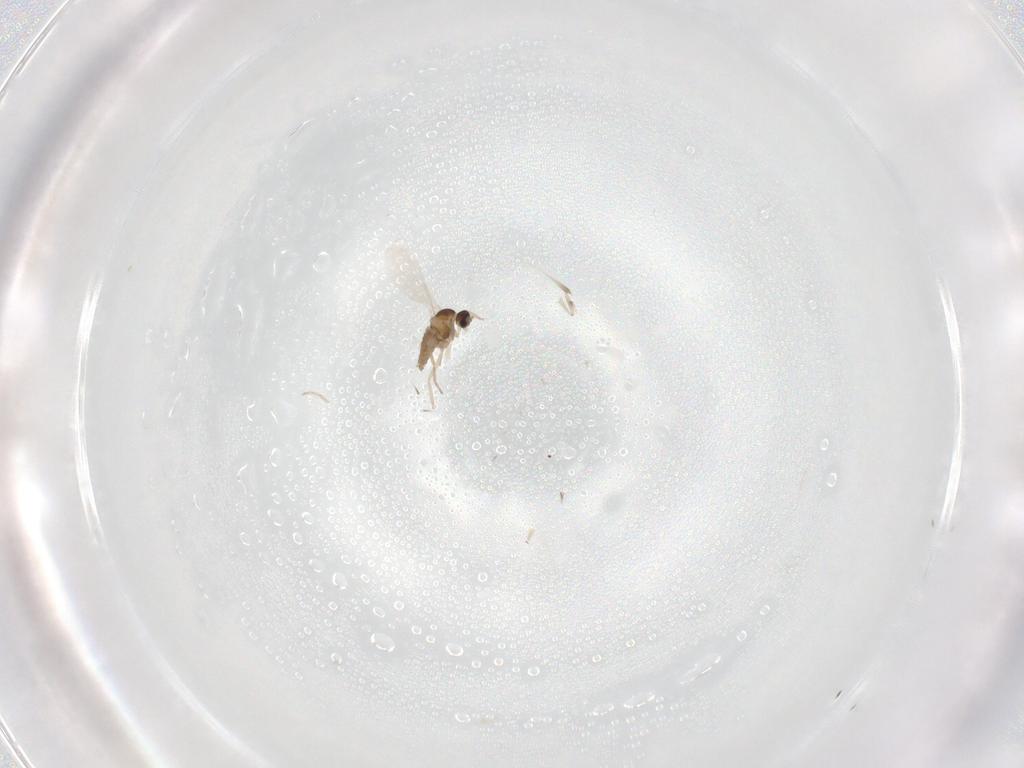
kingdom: Animalia
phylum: Arthropoda
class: Insecta
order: Diptera
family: Cecidomyiidae
